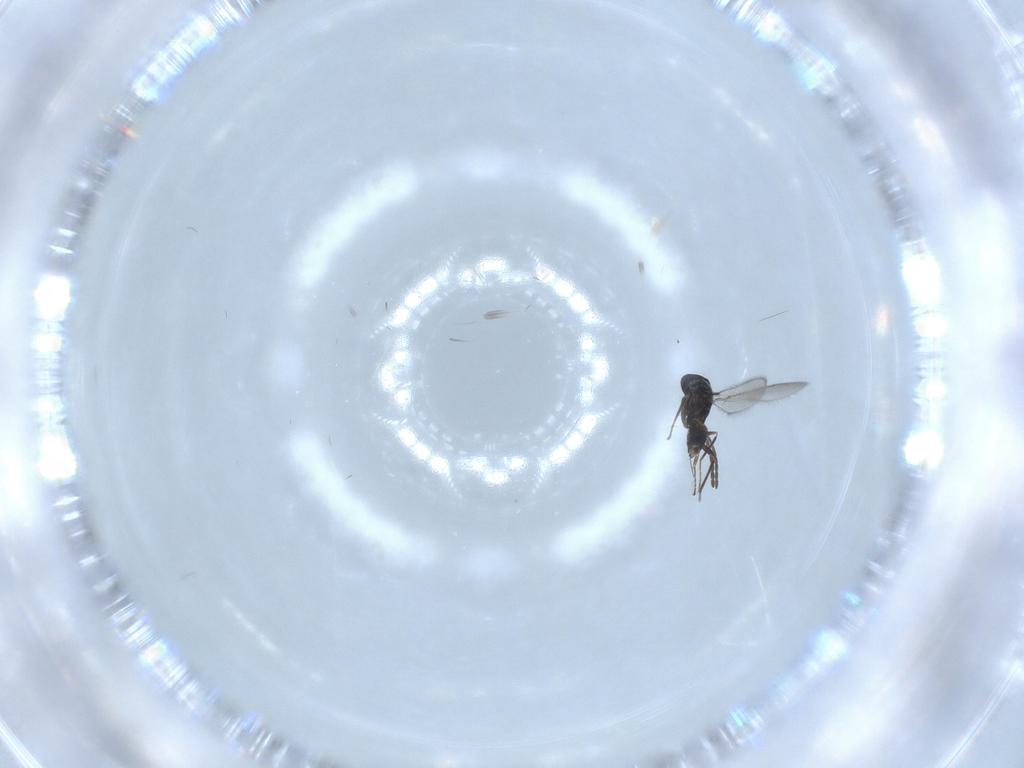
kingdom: Animalia
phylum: Arthropoda
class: Insecta
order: Hymenoptera
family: Mymaridae
